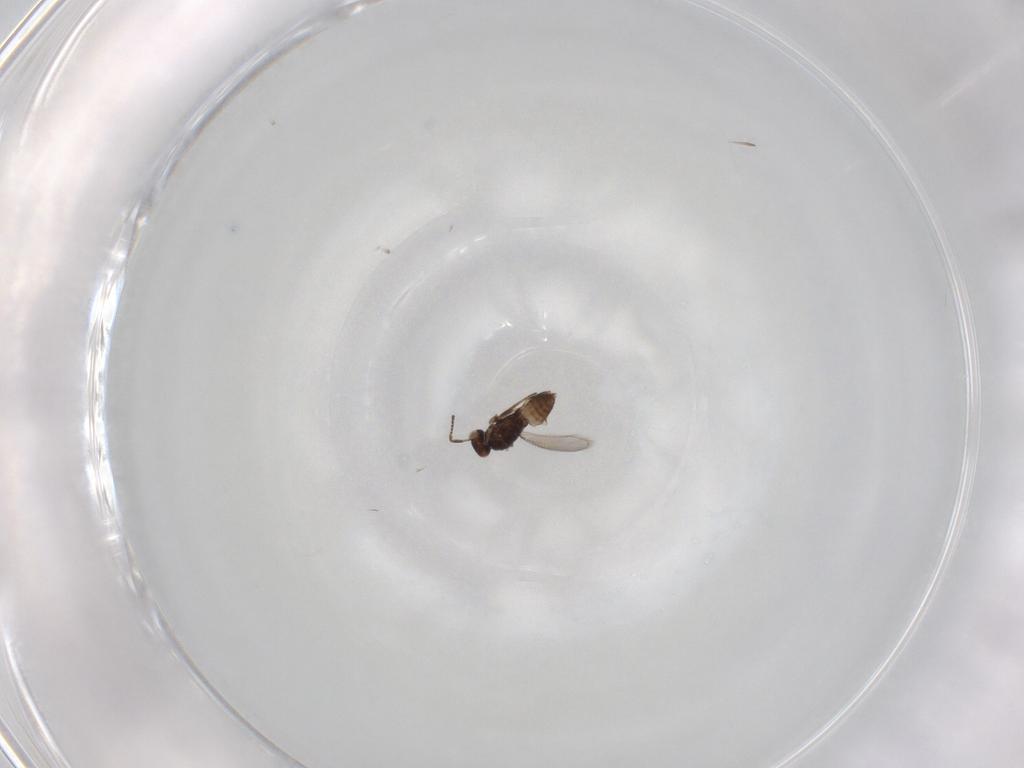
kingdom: Animalia
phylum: Arthropoda
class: Insecta
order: Hymenoptera
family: Mymaridae
